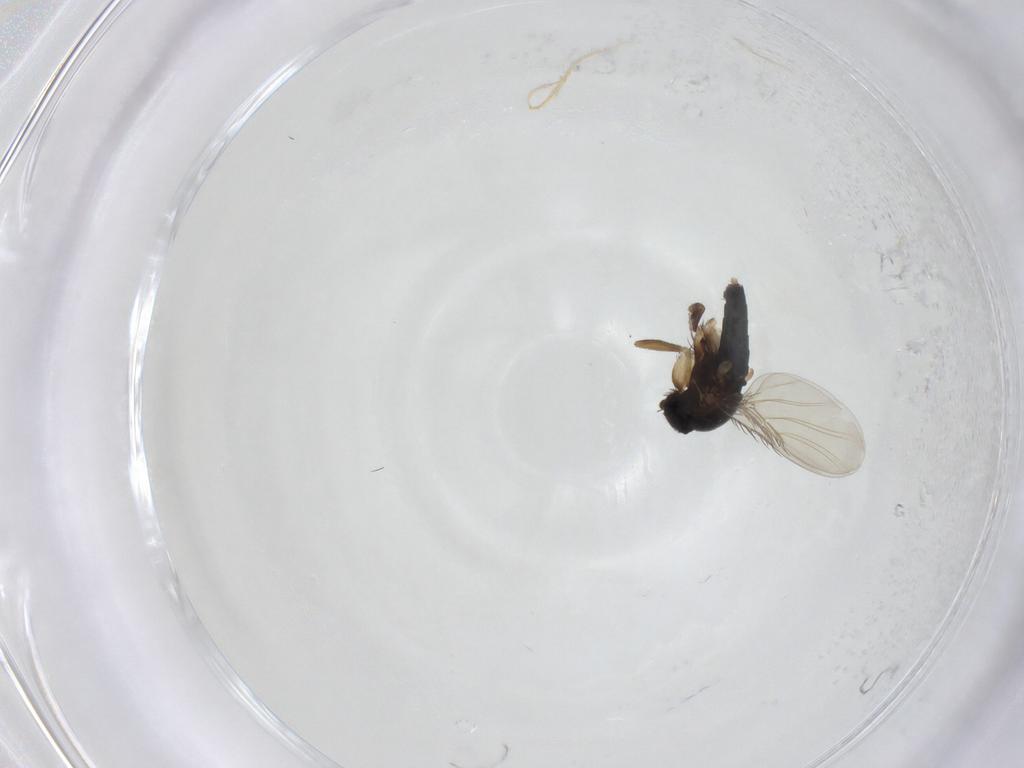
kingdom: Animalia
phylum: Arthropoda
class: Insecta
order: Diptera
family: Phoridae
